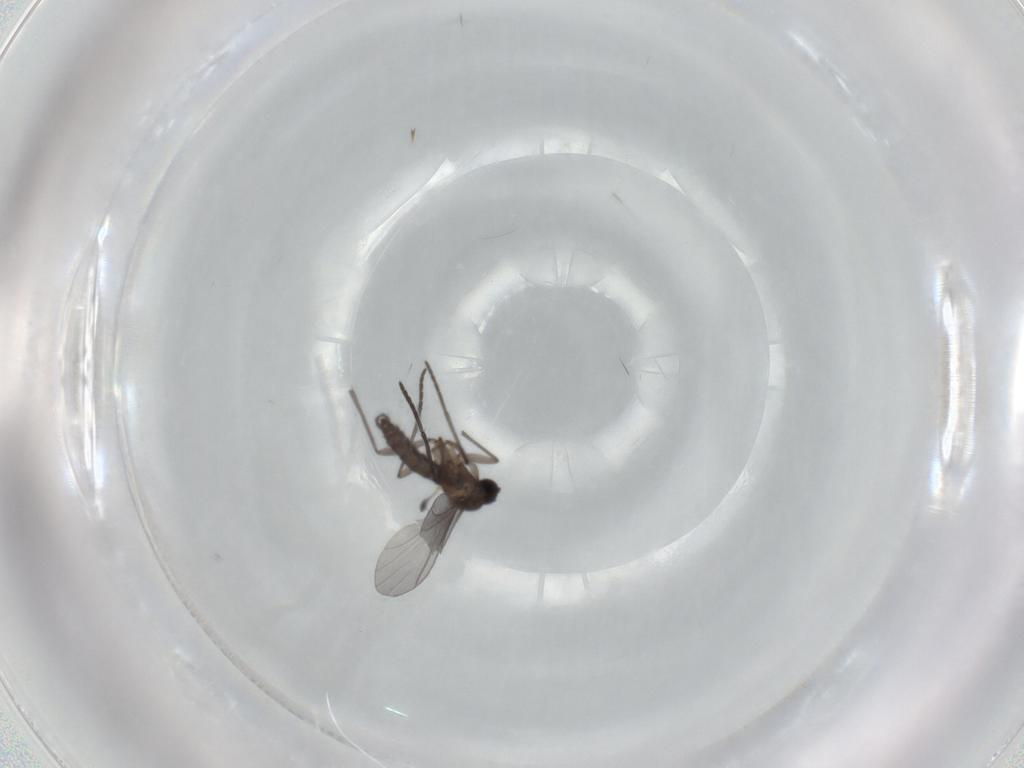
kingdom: Animalia
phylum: Arthropoda
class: Insecta
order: Diptera
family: Micropezidae
